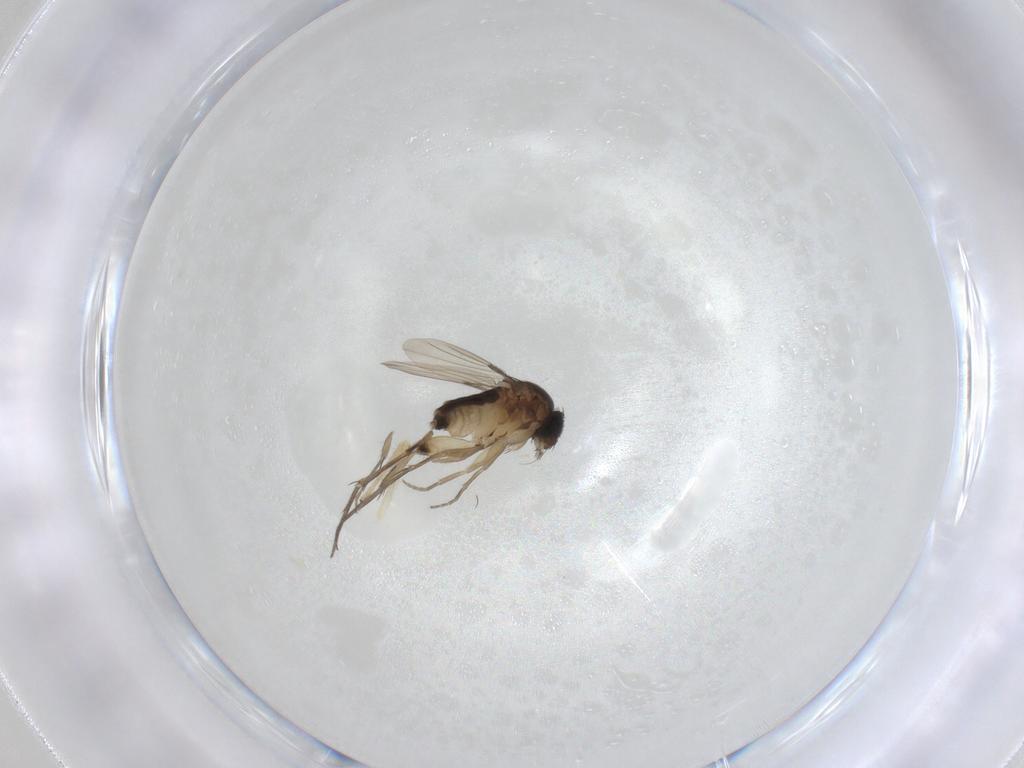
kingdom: Animalia
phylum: Arthropoda
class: Insecta
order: Diptera
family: Phoridae
